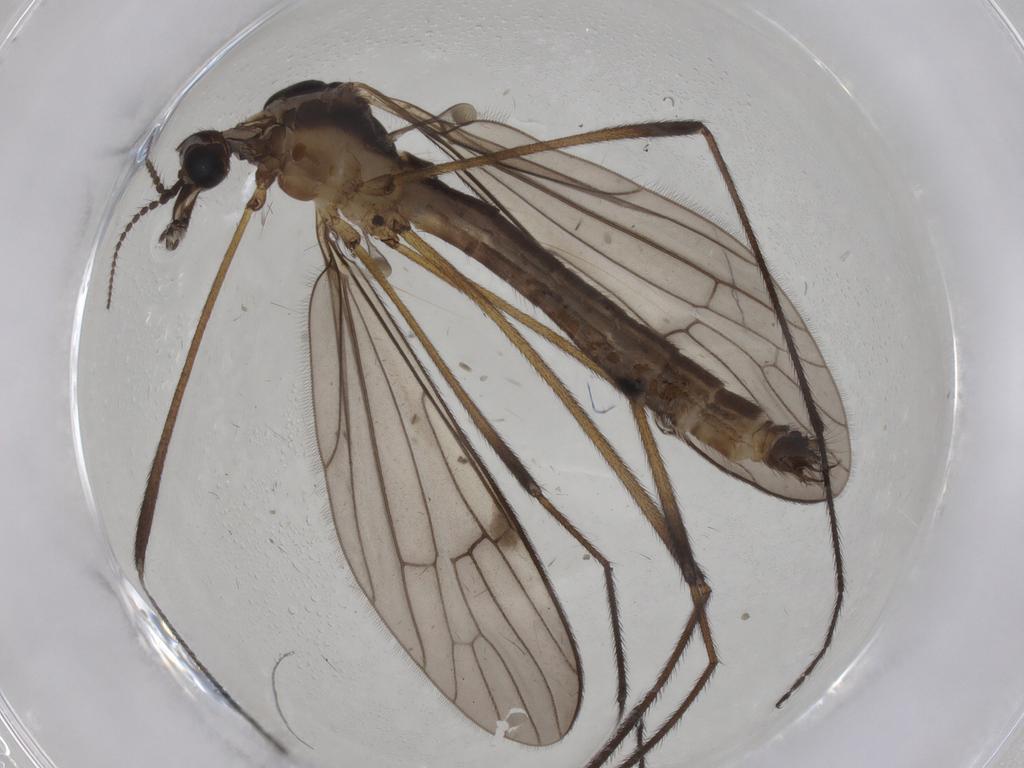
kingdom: Animalia
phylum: Arthropoda
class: Insecta
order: Diptera
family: Limoniidae
